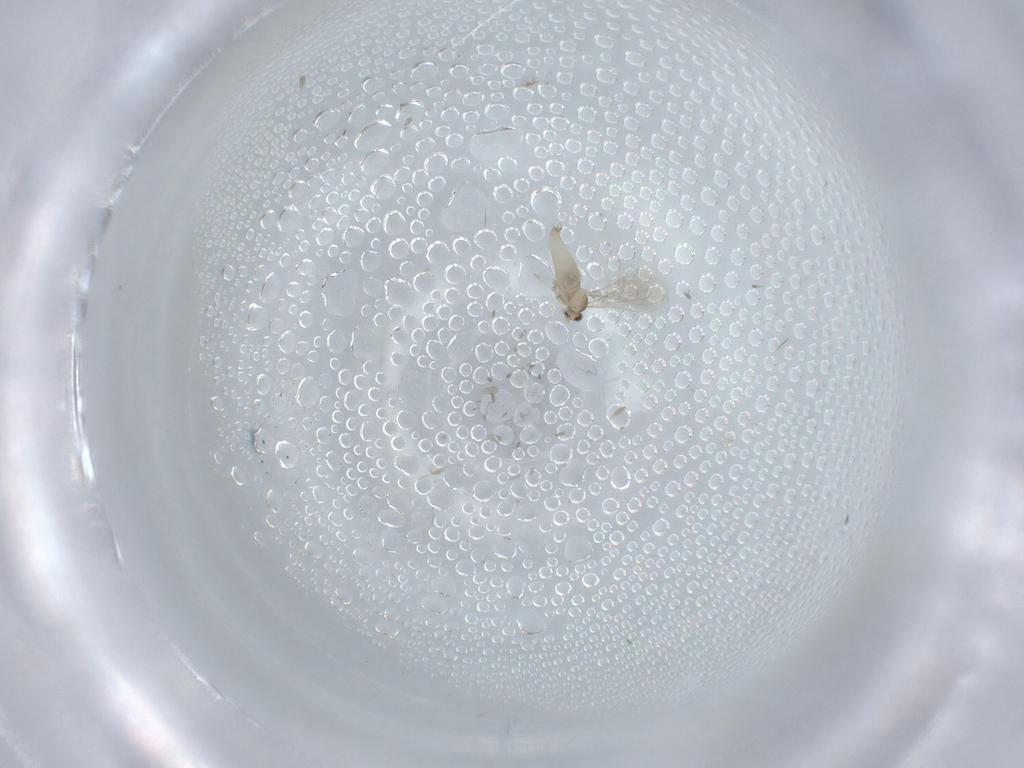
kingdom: Animalia
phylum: Arthropoda
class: Insecta
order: Diptera
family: Cecidomyiidae
